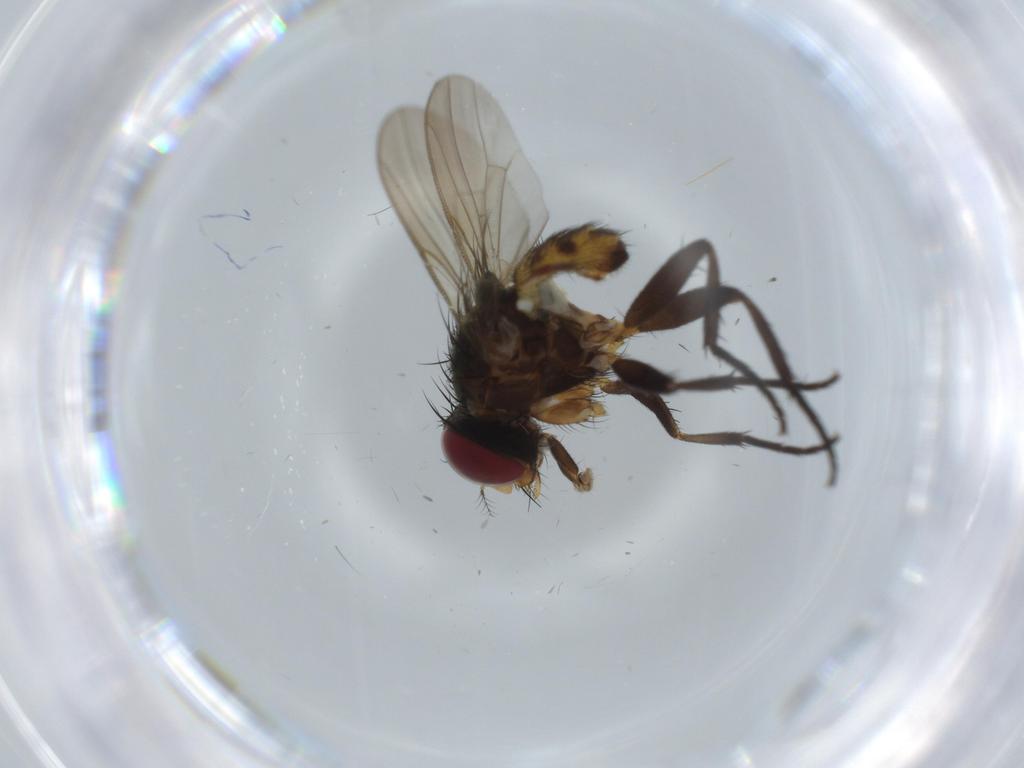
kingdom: Animalia
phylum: Arthropoda
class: Insecta
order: Diptera
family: Anthomyiidae
